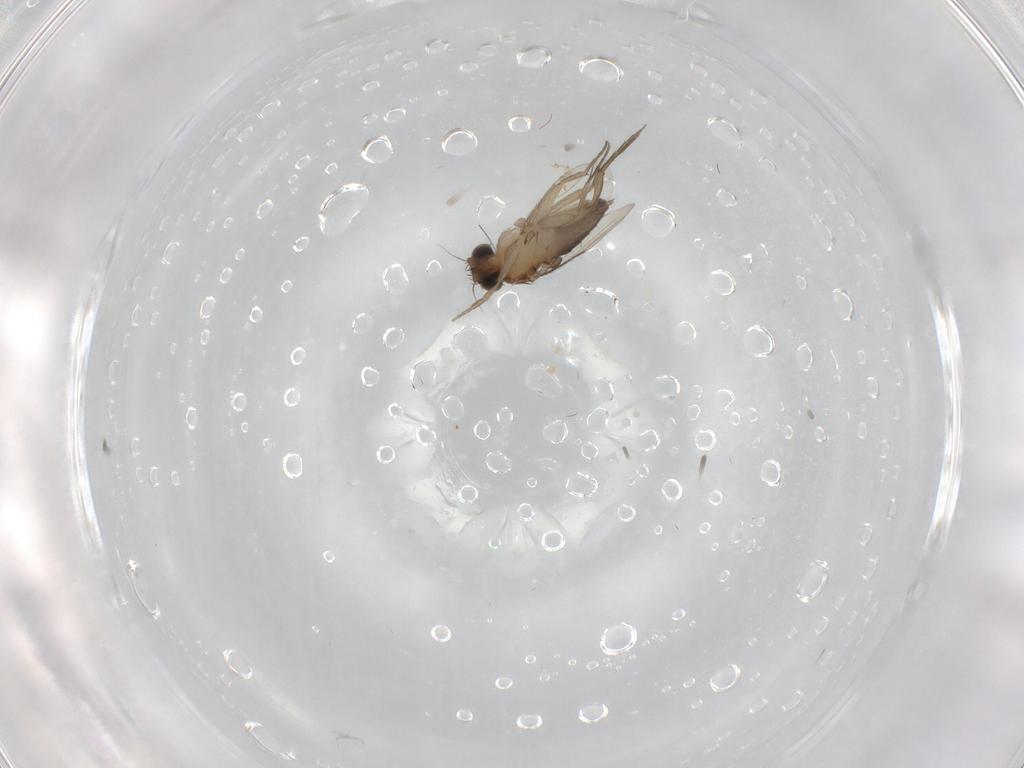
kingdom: Animalia
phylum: Arthropoda
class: Insecta
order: Diptera
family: Phoridae
